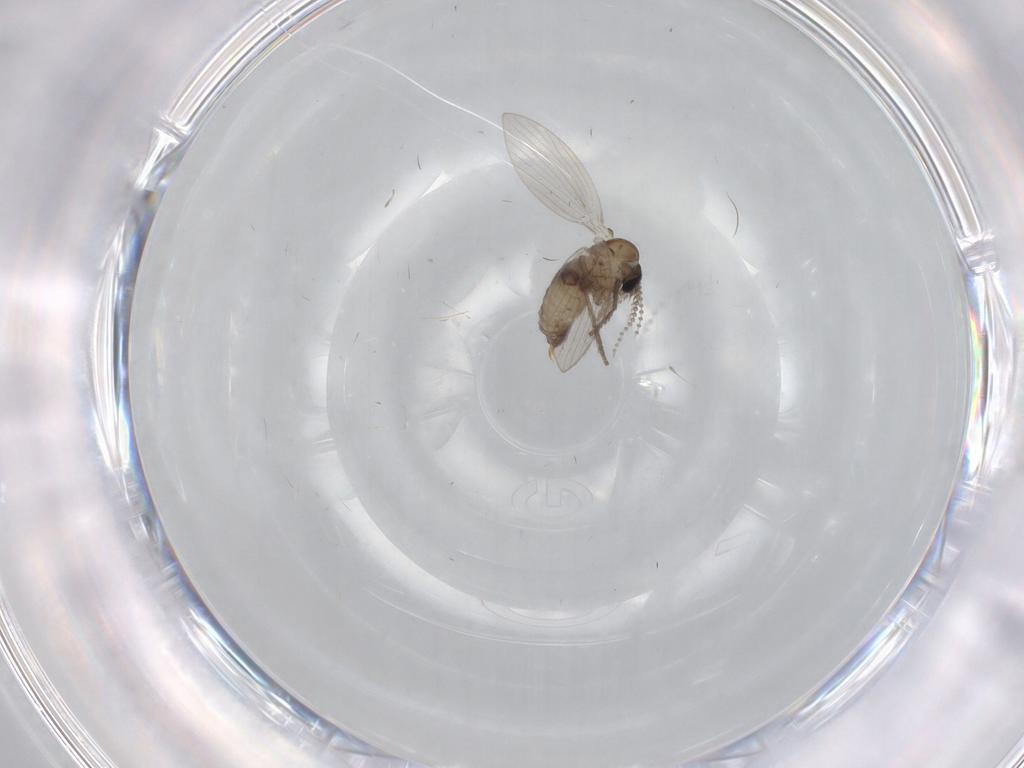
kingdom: Animalia
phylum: Arthropoda
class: Insecta
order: Diptera
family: Psychodidae
